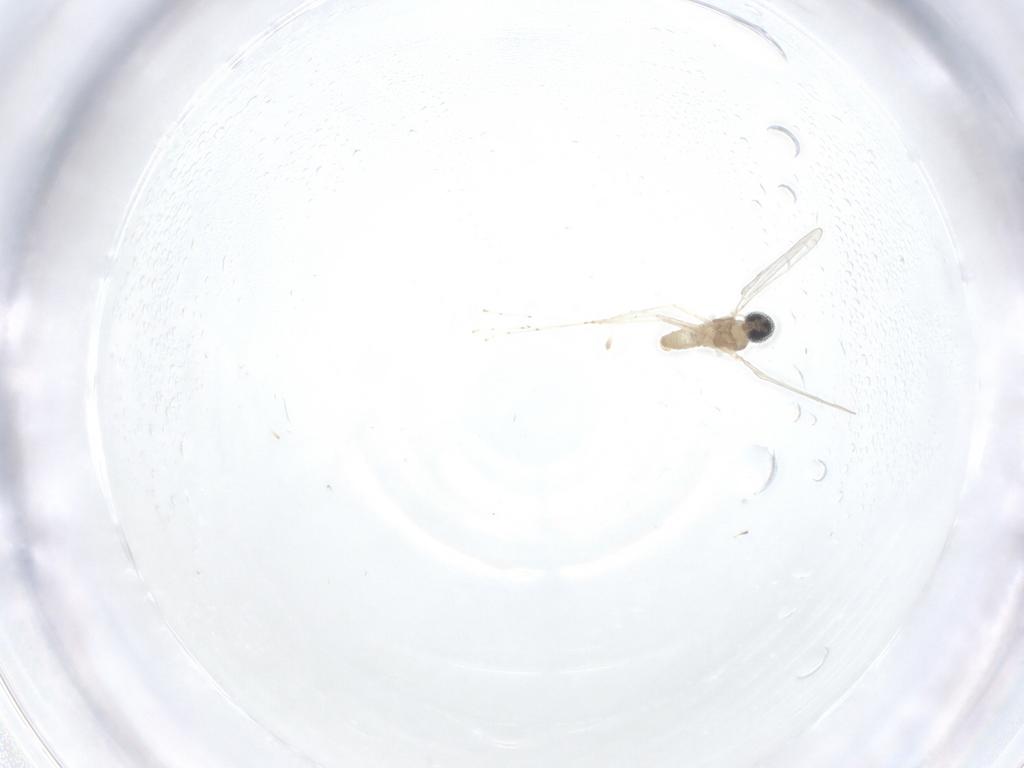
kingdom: Animalia
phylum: Arthropoda
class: Insecta
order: Diptera
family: Cecidomyiidae
